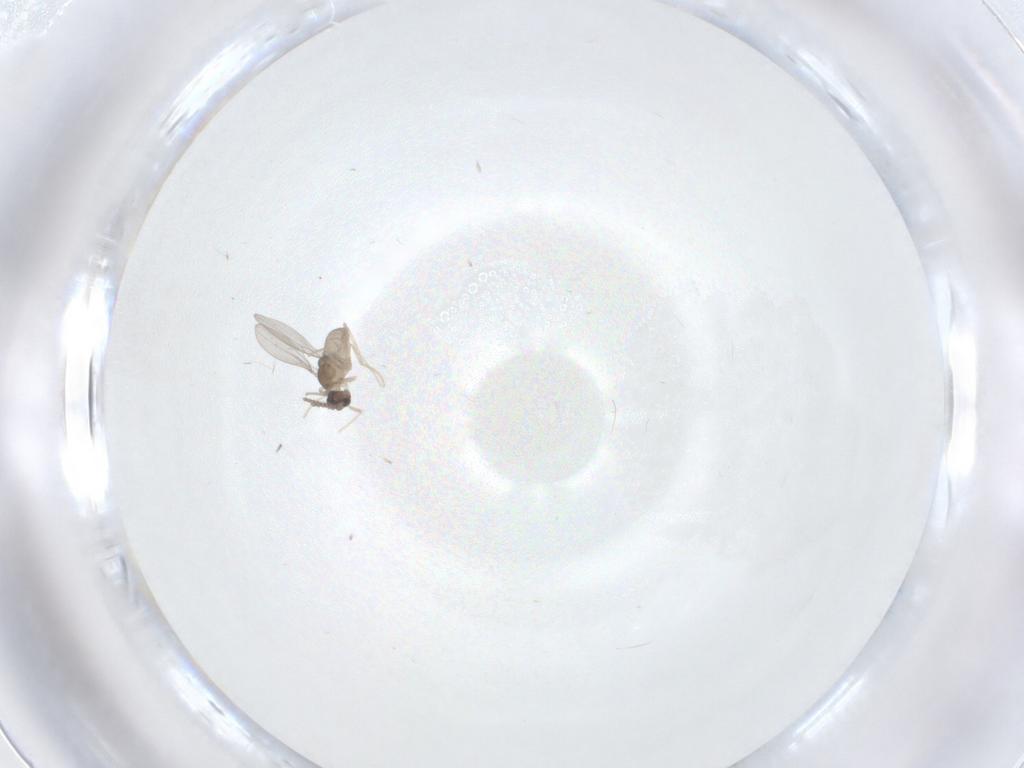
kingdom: Animalia
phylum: Arthropoda
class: Insecta
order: Diptera
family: Cecidomyiidae
